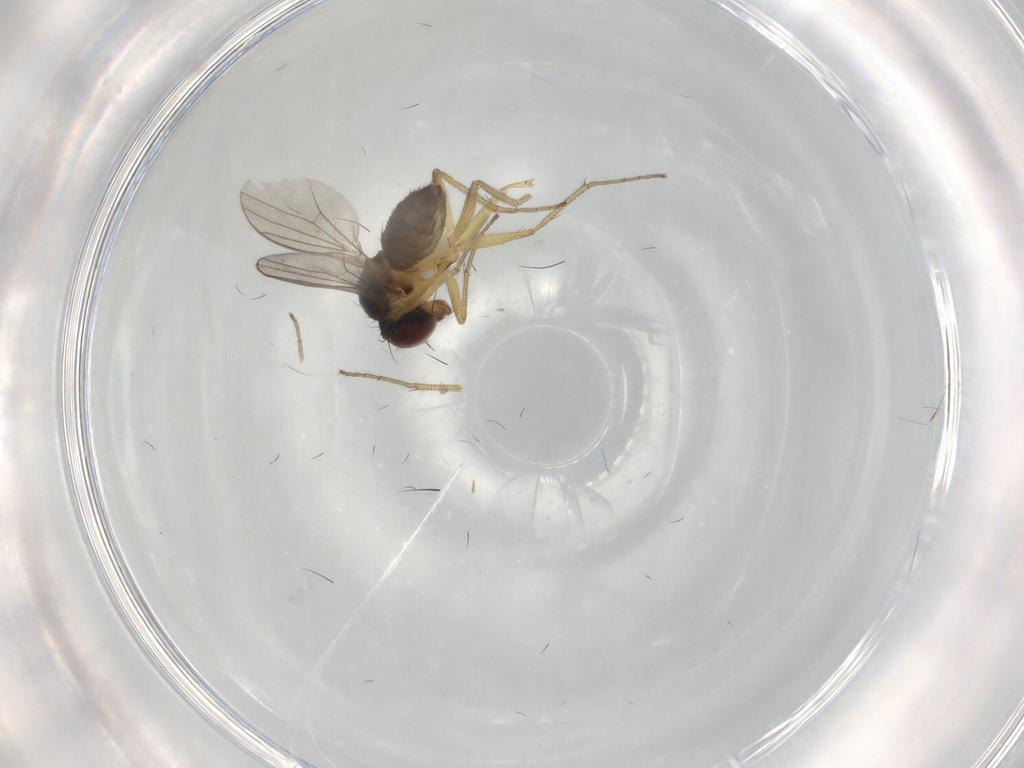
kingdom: Animalia
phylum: Arthropoda
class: Insecta
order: Diptera
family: Dolichopodidae
